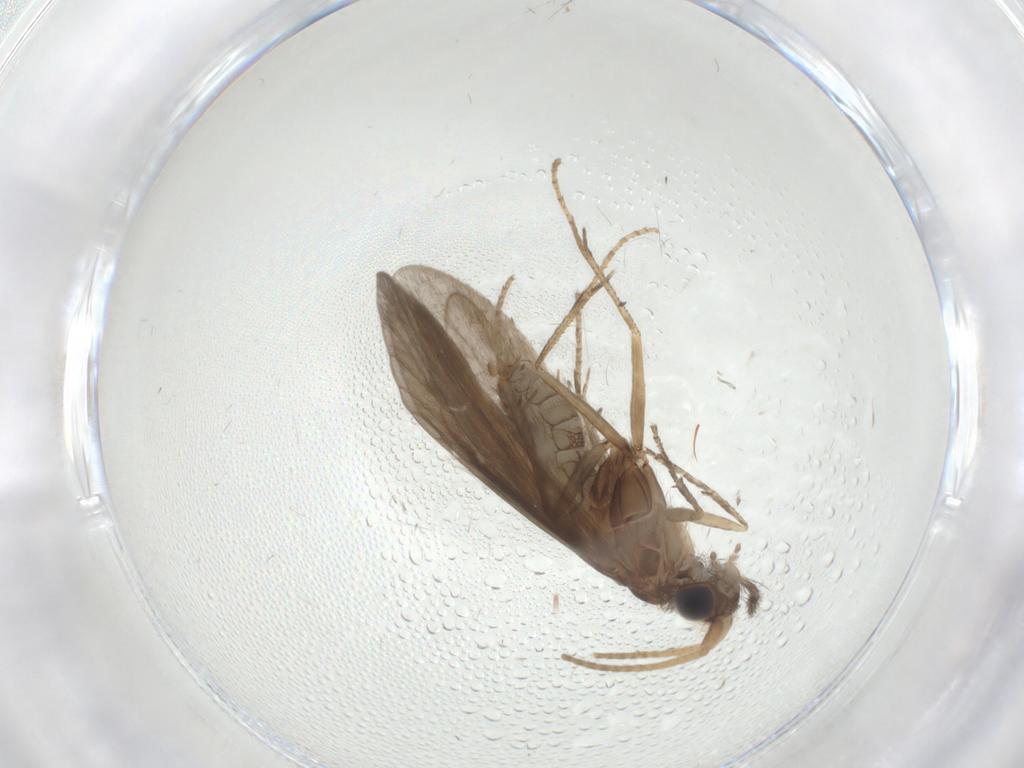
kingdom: Animalia
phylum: Arthropoda
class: Insecta
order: Trichoptera
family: Helicopsychidae
